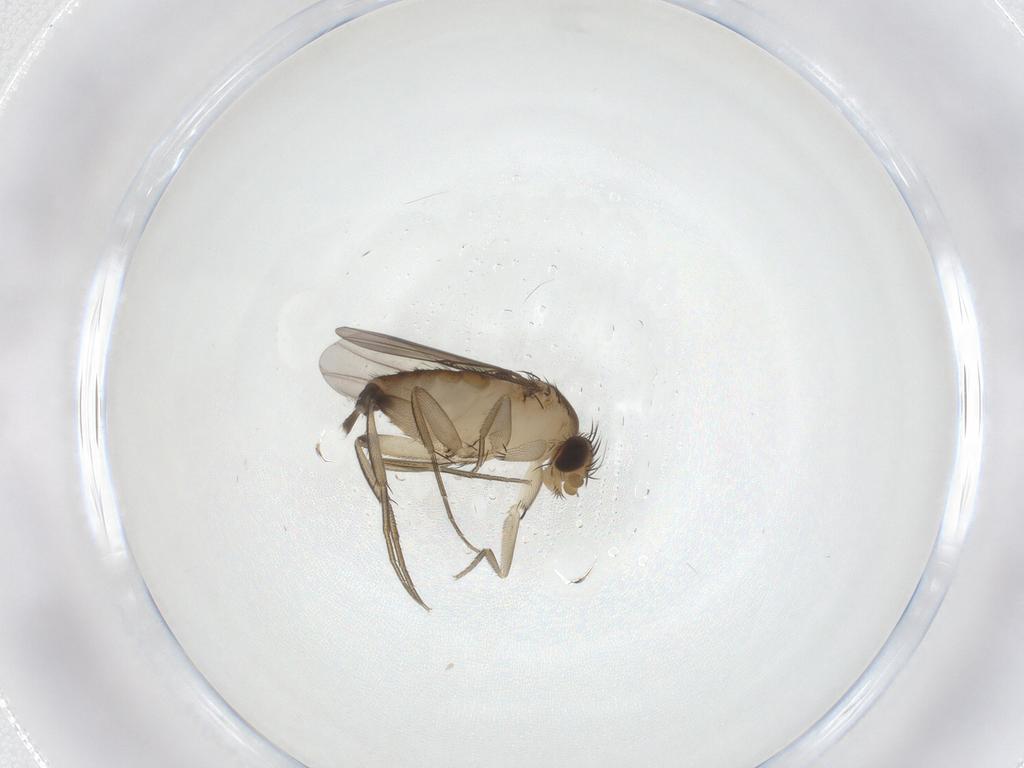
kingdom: Animalia
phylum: Arthropoda
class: Insecta
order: Diptera
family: Phoridae
